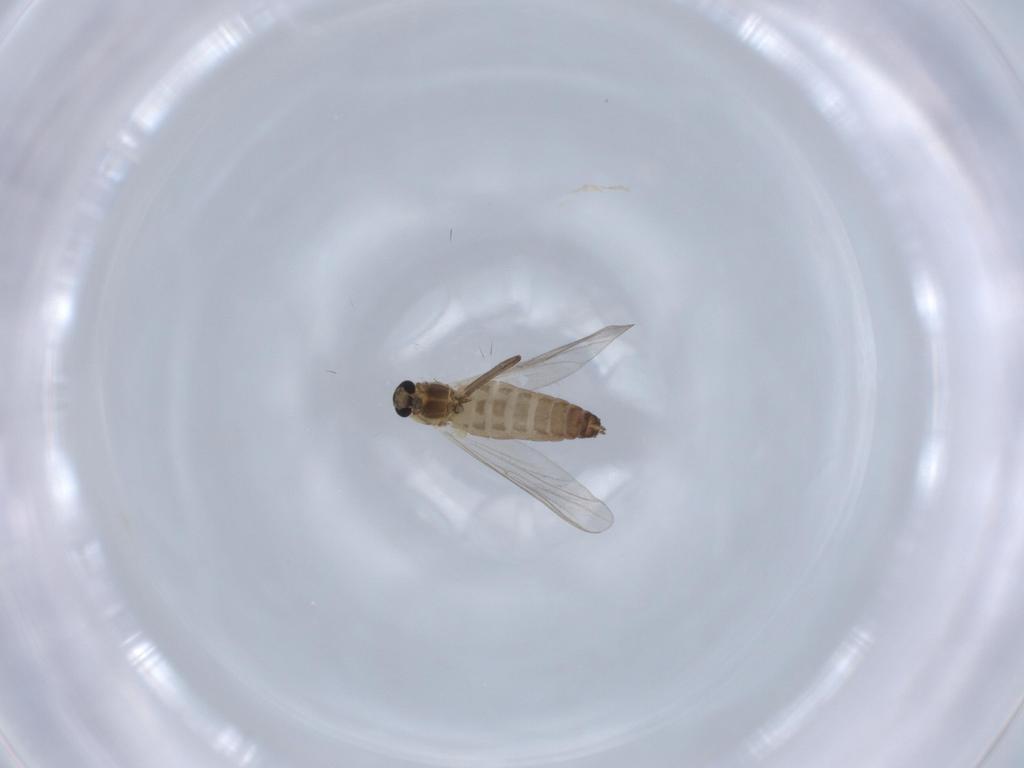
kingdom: Animalia
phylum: Arthropoda
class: Insecta
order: Diptera
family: Chironomidae
